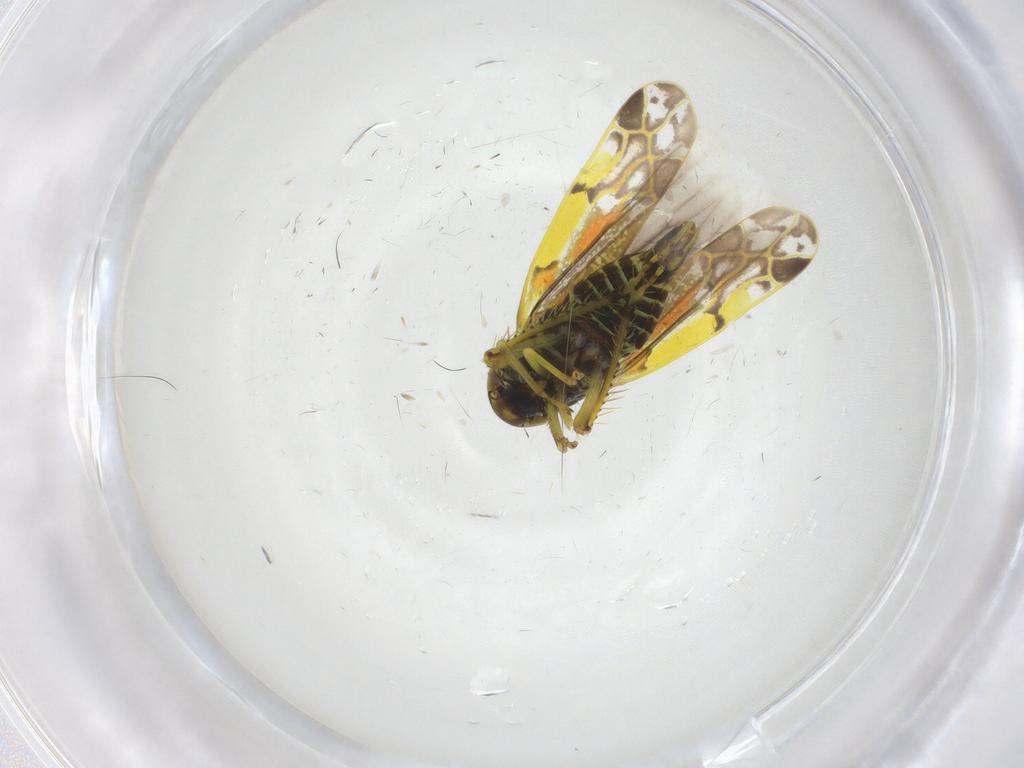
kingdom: Animalia
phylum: Arthropoda
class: Insecta
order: Hemiptera
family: Cicadellidae
